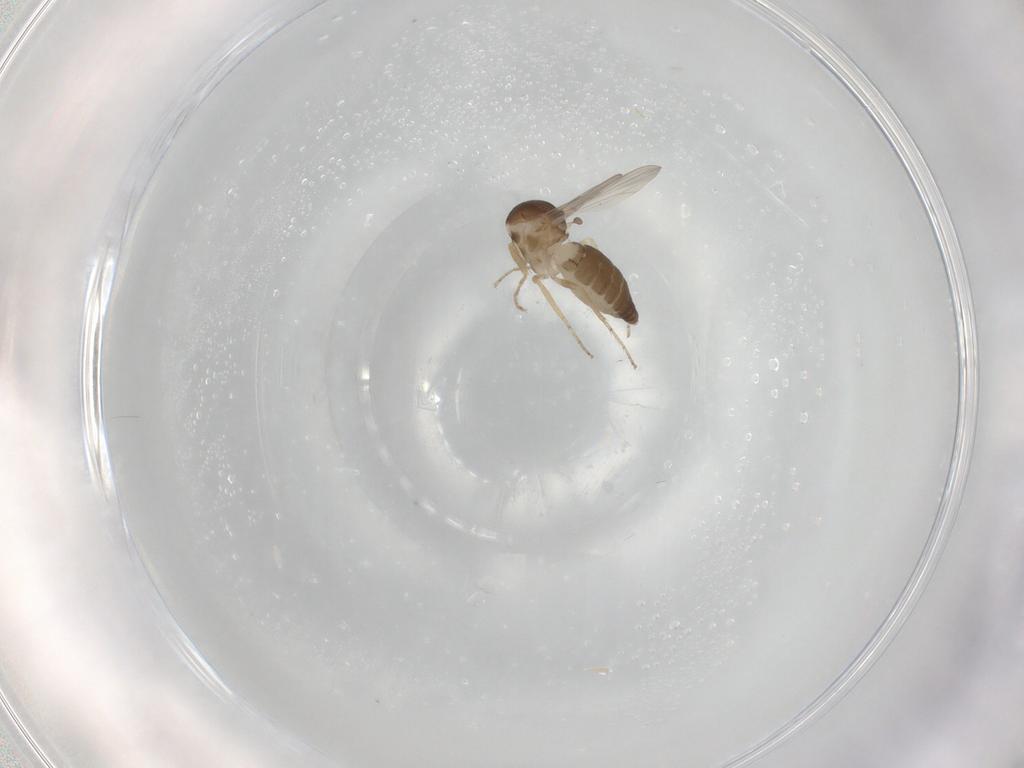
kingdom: Animalia
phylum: Arthropoda
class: Insecta
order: Diptera
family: Ceratopogonidae
